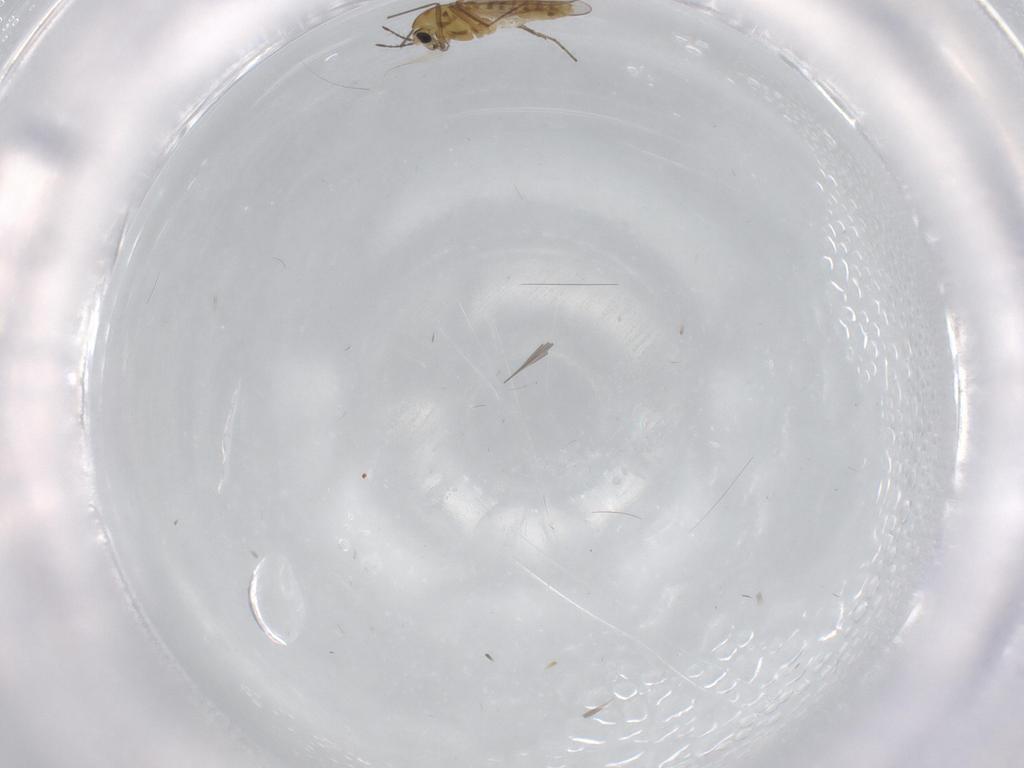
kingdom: Animalia
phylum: Arthropoda
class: Insecta
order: Diptera
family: Chironomidae
